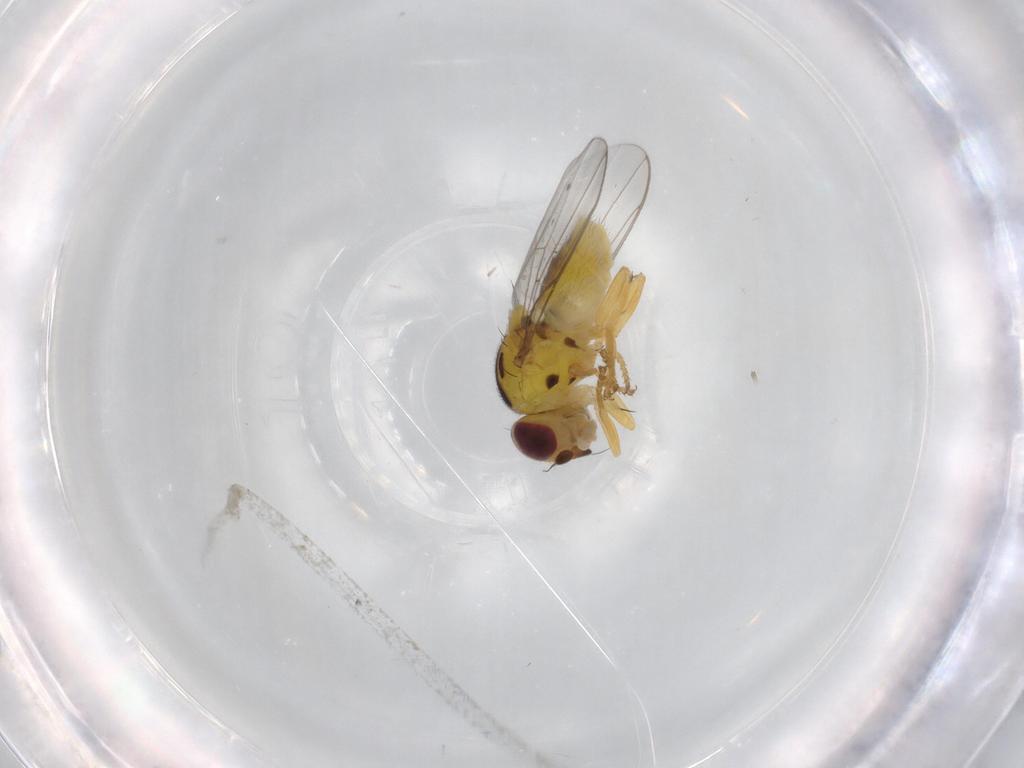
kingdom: Animalia
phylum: Arthropoda
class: Insecta
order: Diptera
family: Chloropidae
